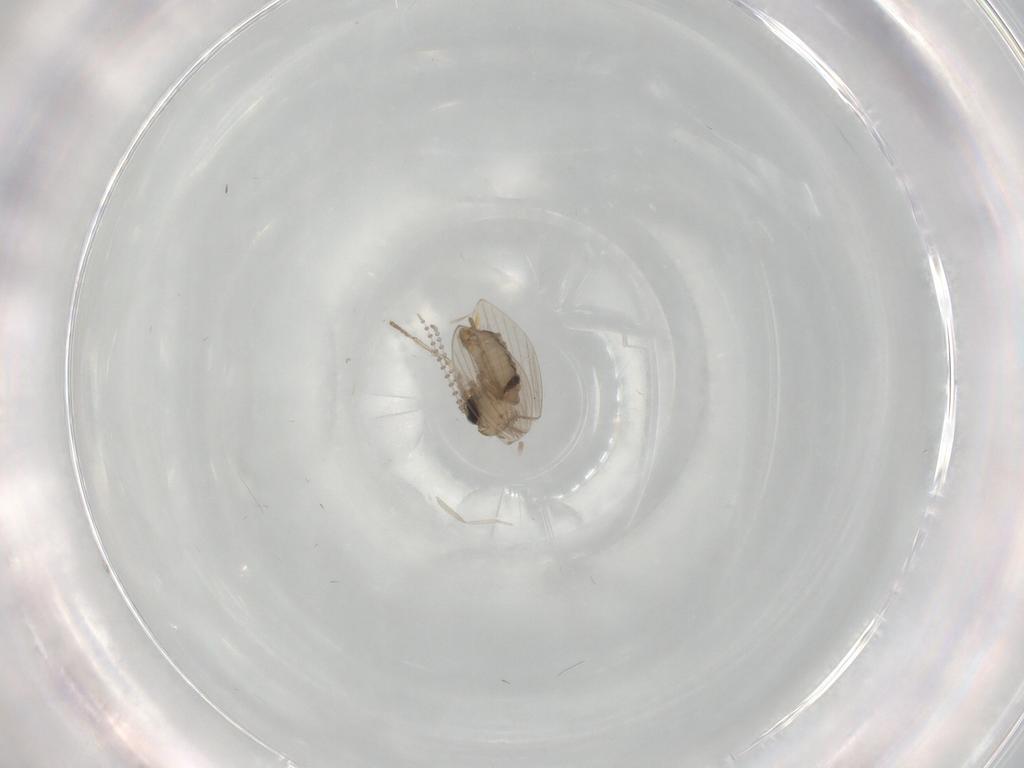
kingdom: Animalia
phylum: Arthropoda
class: Insecta
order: Diptera
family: Psychodidae
